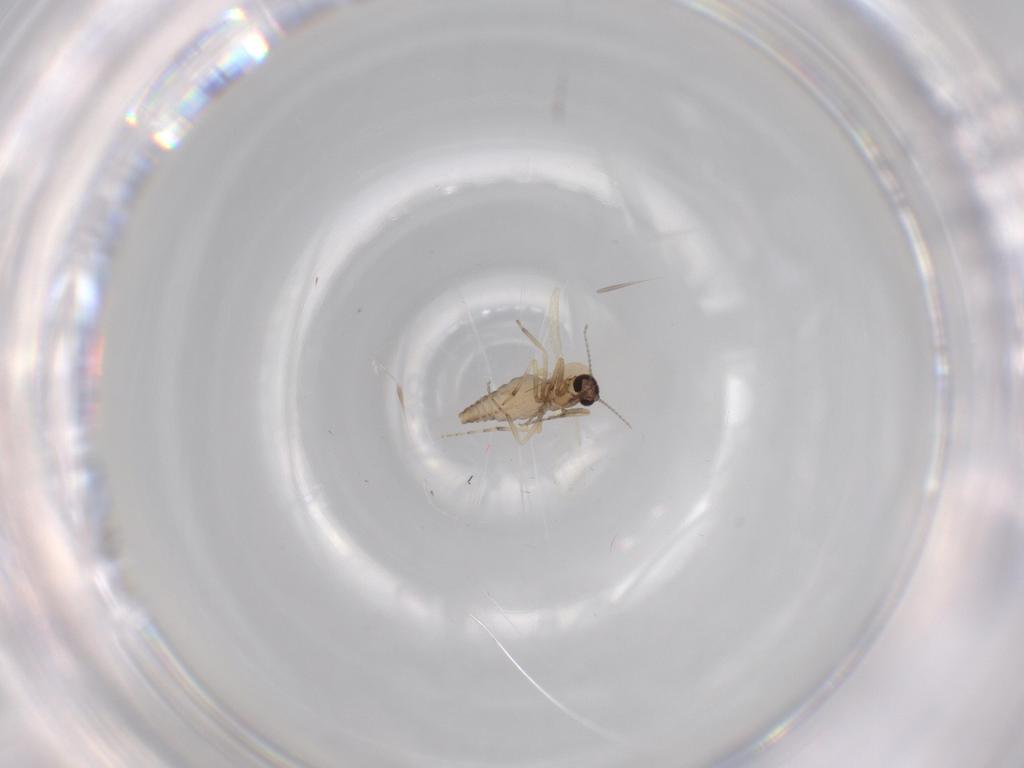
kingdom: Animalia
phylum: Arthropoda
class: Insecta
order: Diptera
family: Ceratopogonidae
